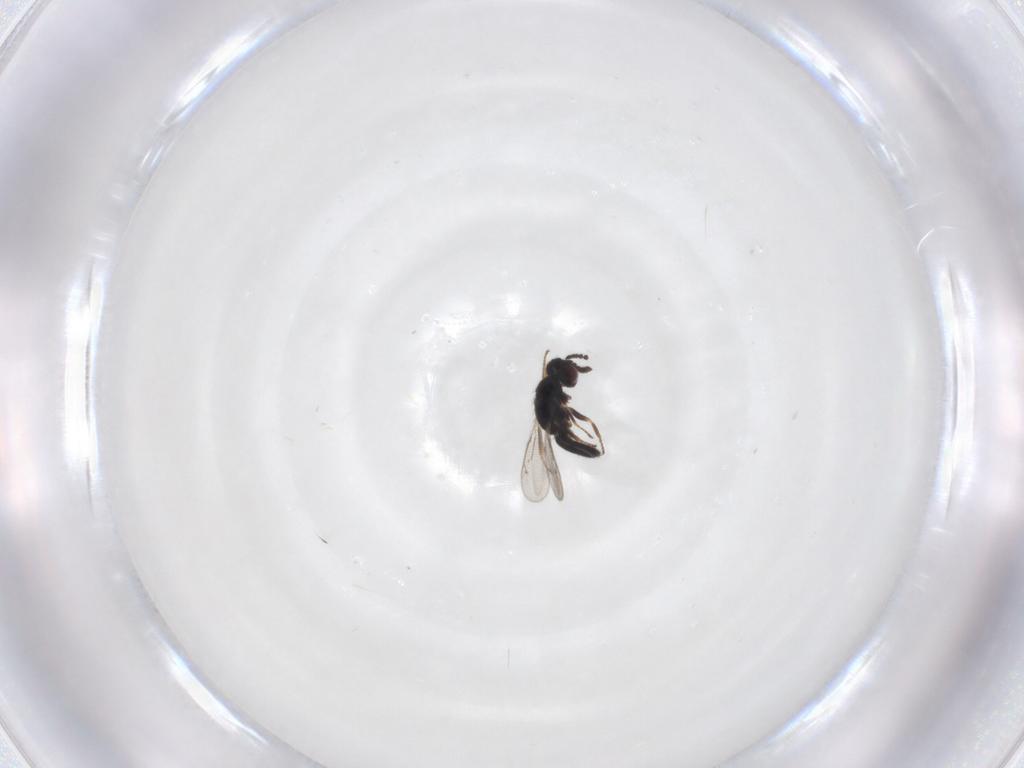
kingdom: Animalia
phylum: Arthropoda
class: Insecta
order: Hymenoptera
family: Eulophidae
